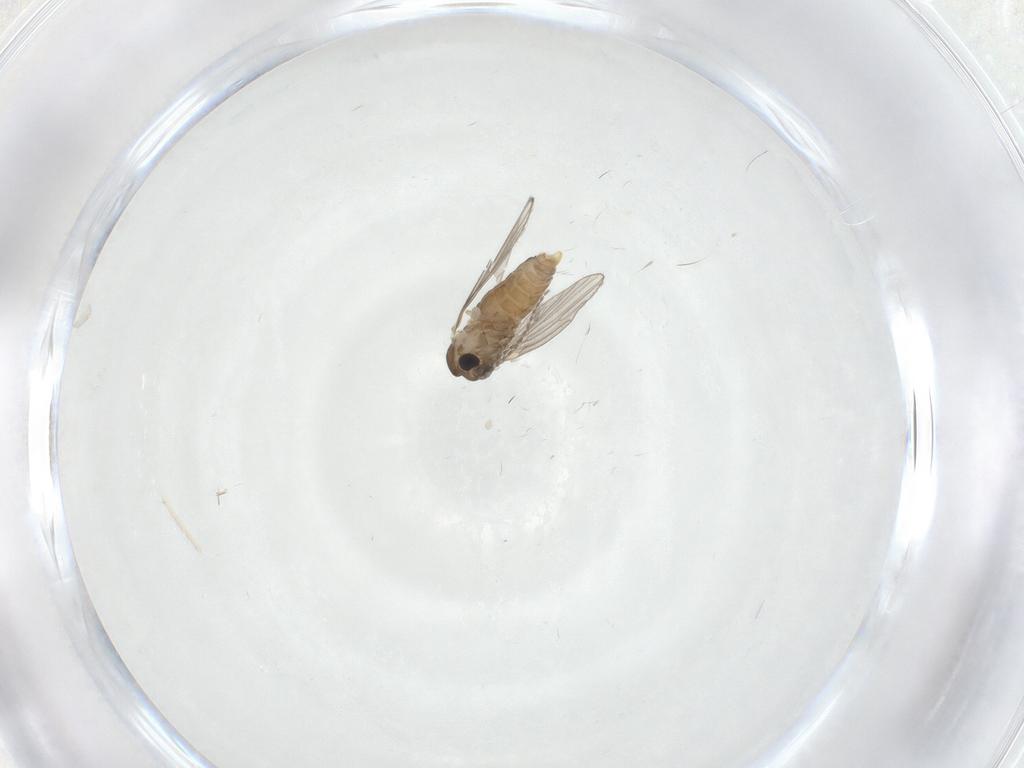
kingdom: Animalia
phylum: Arthropoda
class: Insecta
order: Diptera
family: Psychodidae
